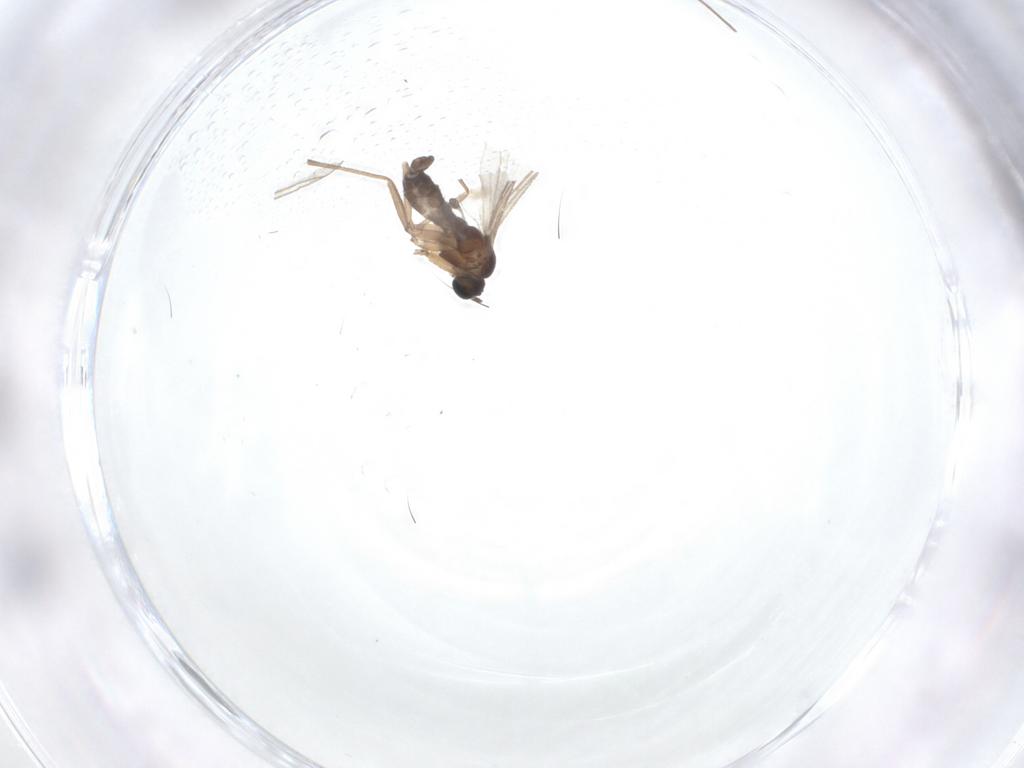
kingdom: Animalia
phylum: Arthropoda
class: Insecta
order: Diptera
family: Sciaridae
